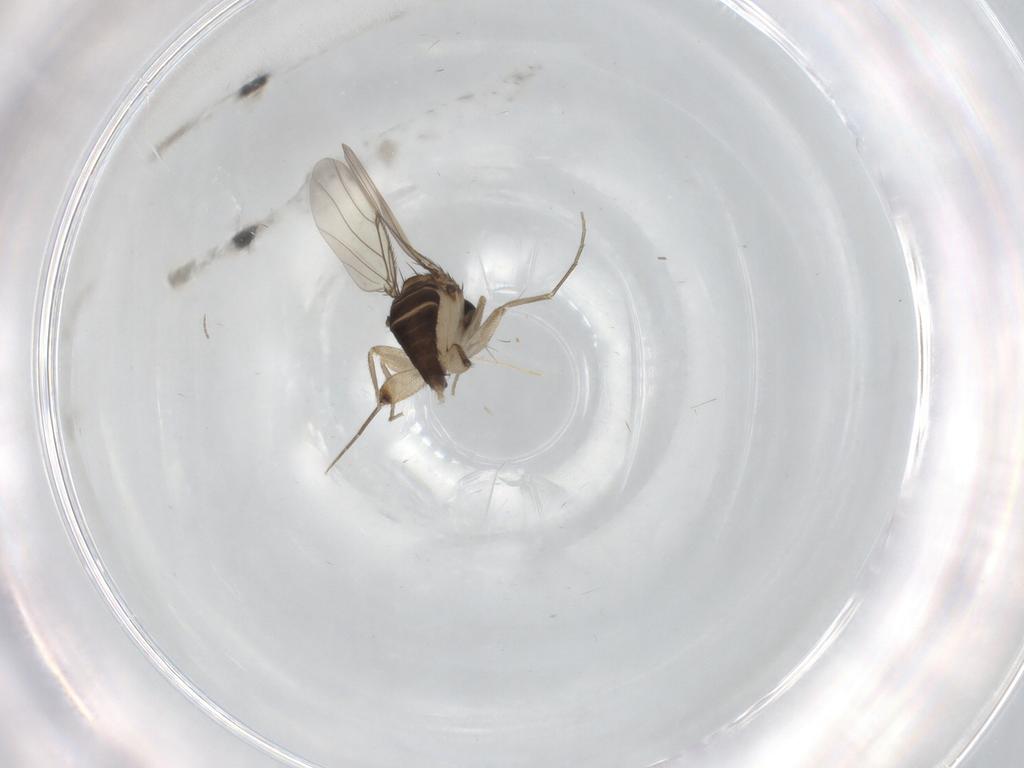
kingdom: Animalia
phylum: Arthropoda
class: Insecta
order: Diptera
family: Phoridae
